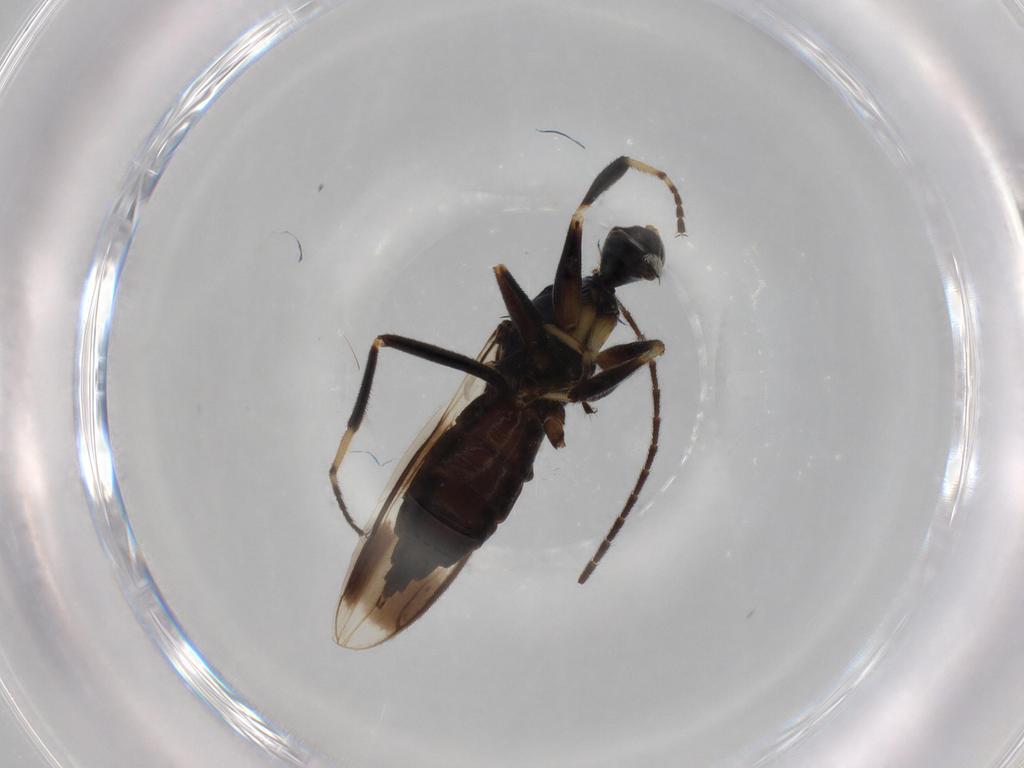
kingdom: Animalia
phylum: Arthropoda
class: Insecta
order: Diptera
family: Hybotidae
